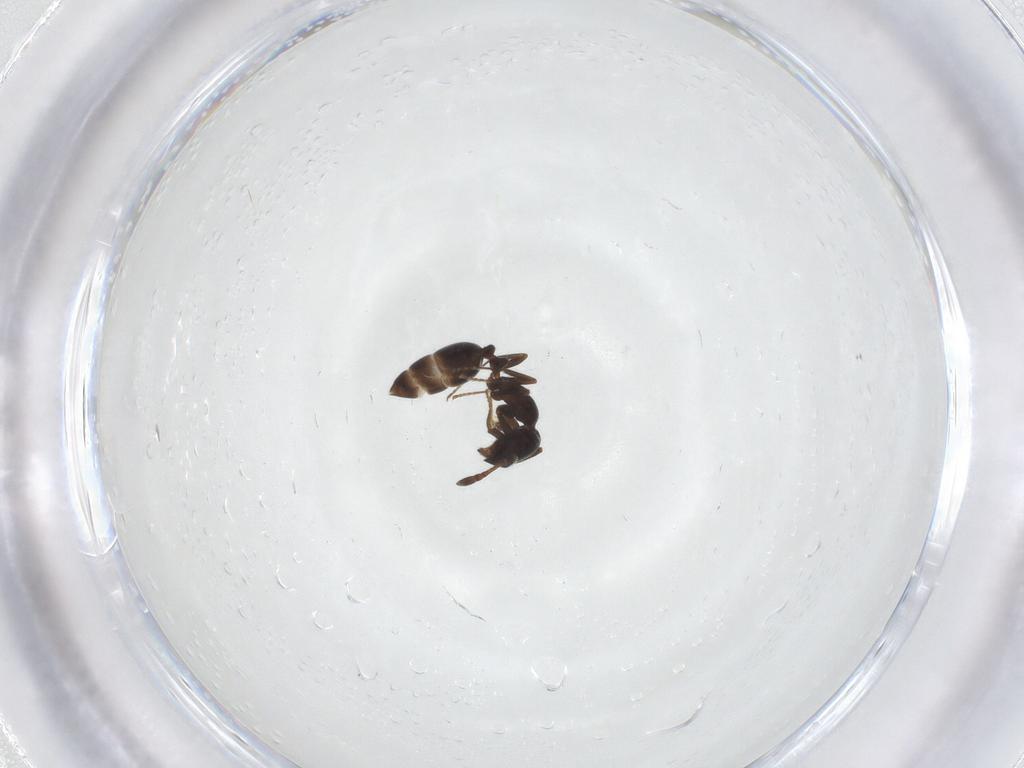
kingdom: Animalia
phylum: Arthropoda
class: Insecta
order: Hymenoptera
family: Formicidae
